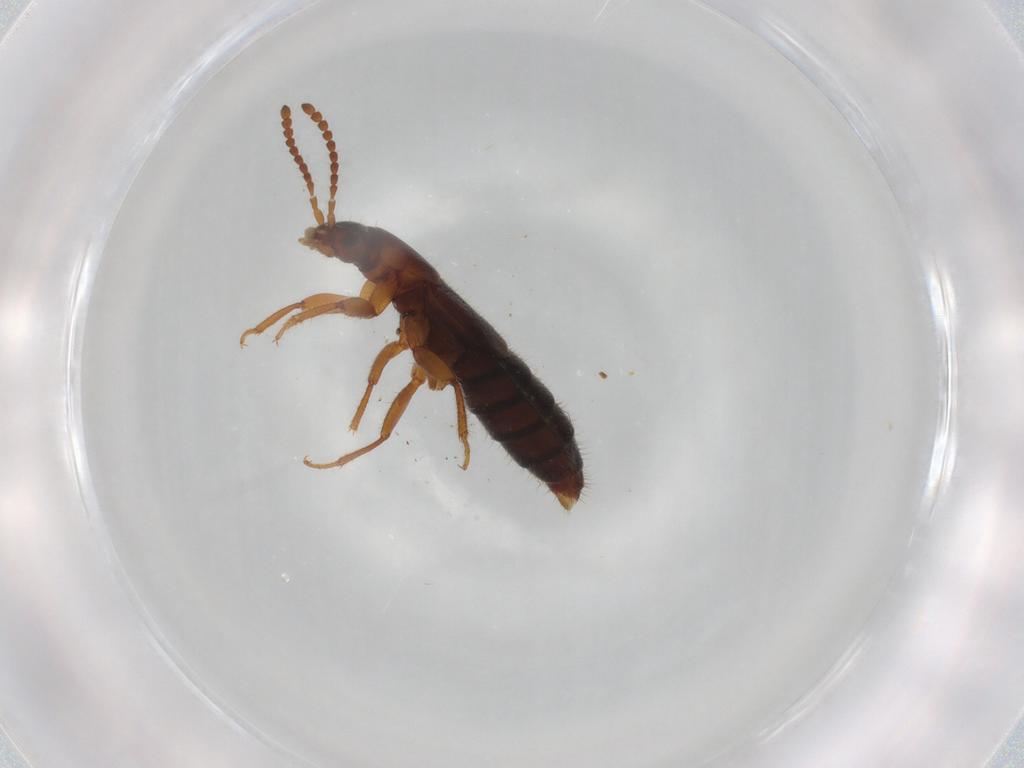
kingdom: Animalia
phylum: Arthropoda
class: Insecta
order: Coleoptera
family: Staphylinidae
